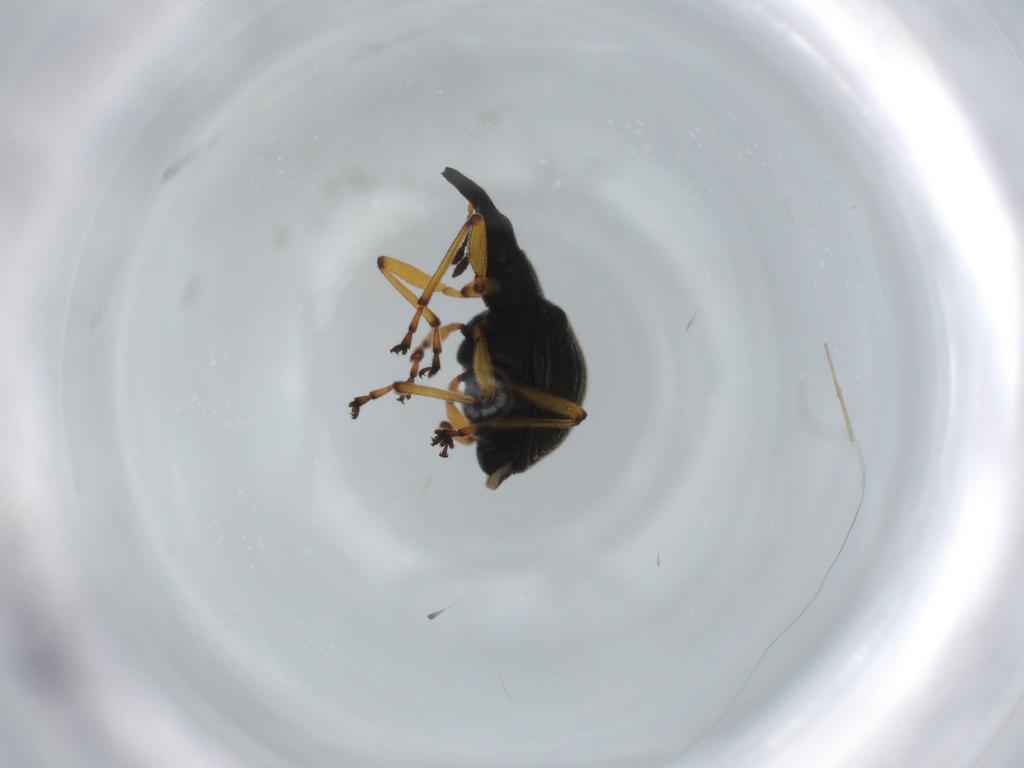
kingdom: Animalia
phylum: Arthropoda
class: Insecta
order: Coleoptera
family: Brentidae
